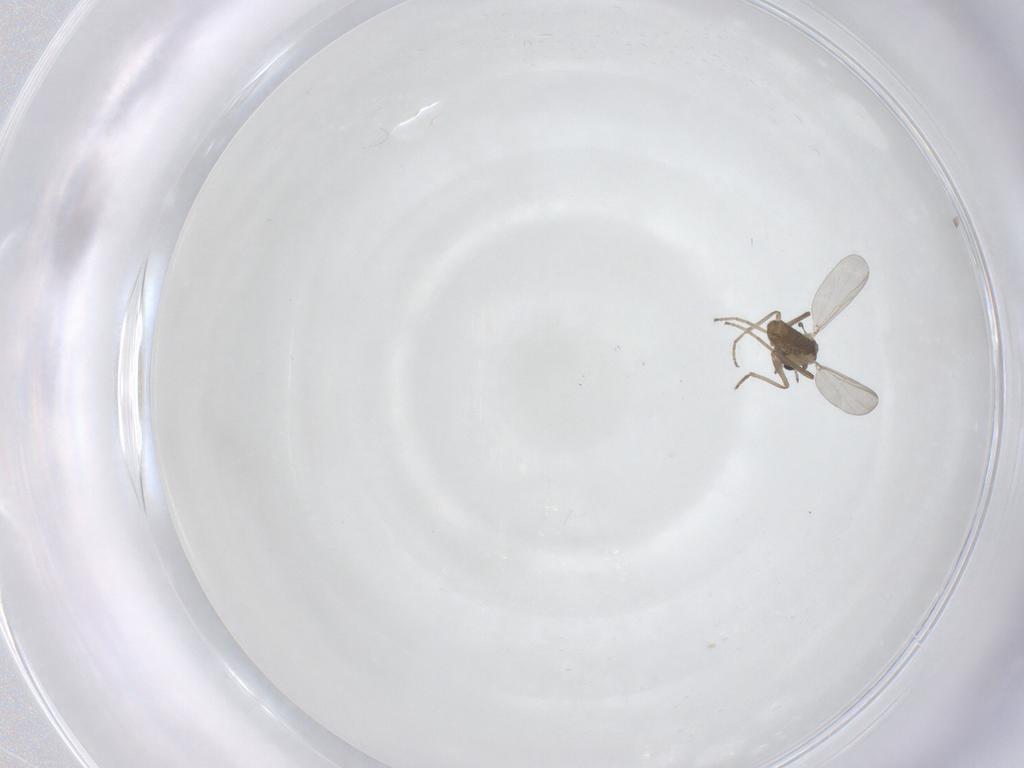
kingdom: Animalia
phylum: Arthropoda
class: Insecta
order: Diptera
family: Chironomidae
